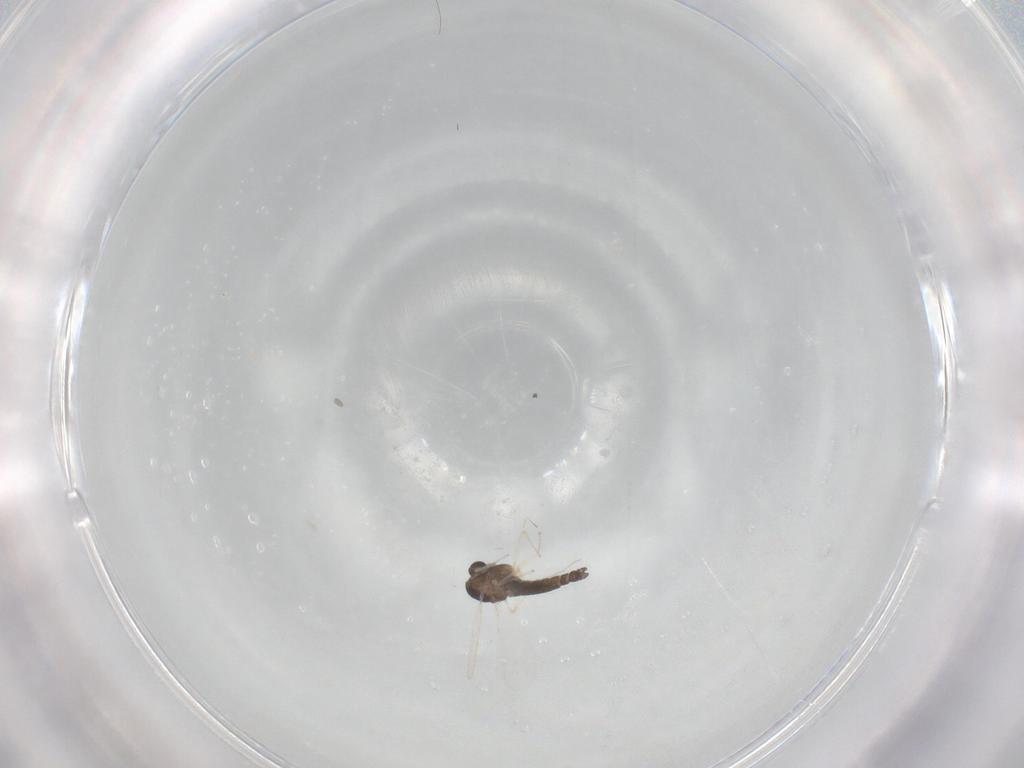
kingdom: Animalia
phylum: Arthropoda
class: Insecta
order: Diptera
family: Chironomidae
